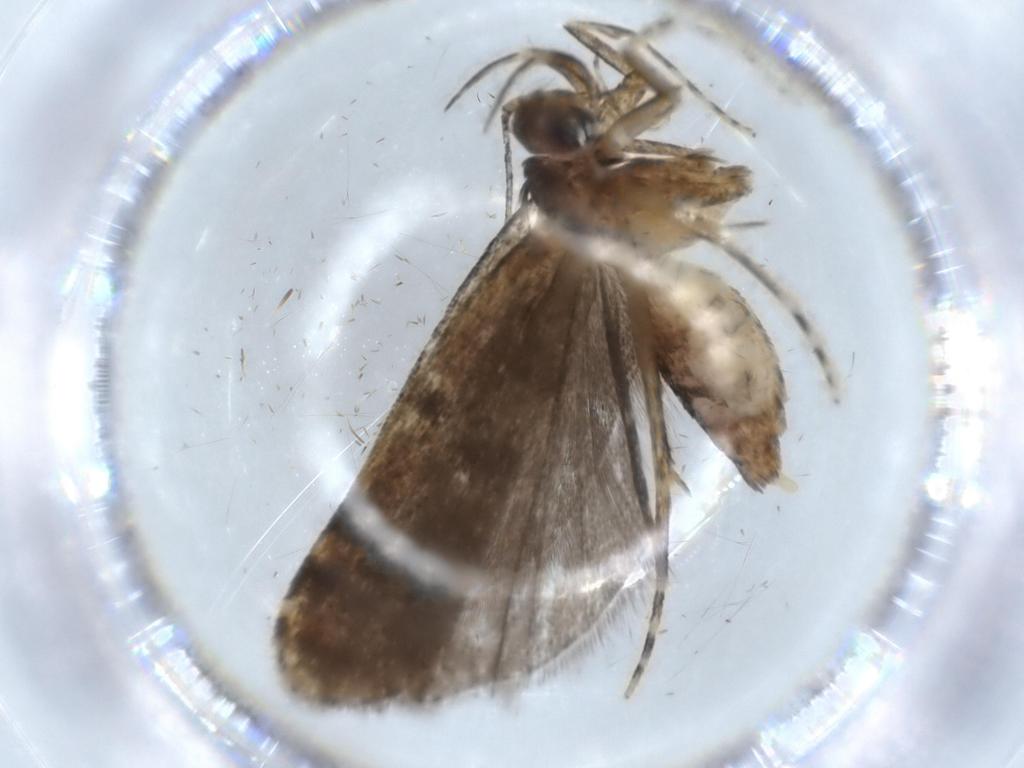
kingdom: Animalia
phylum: Arthropoda
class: Insecta
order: Lepidoptera
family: Autostichidae
